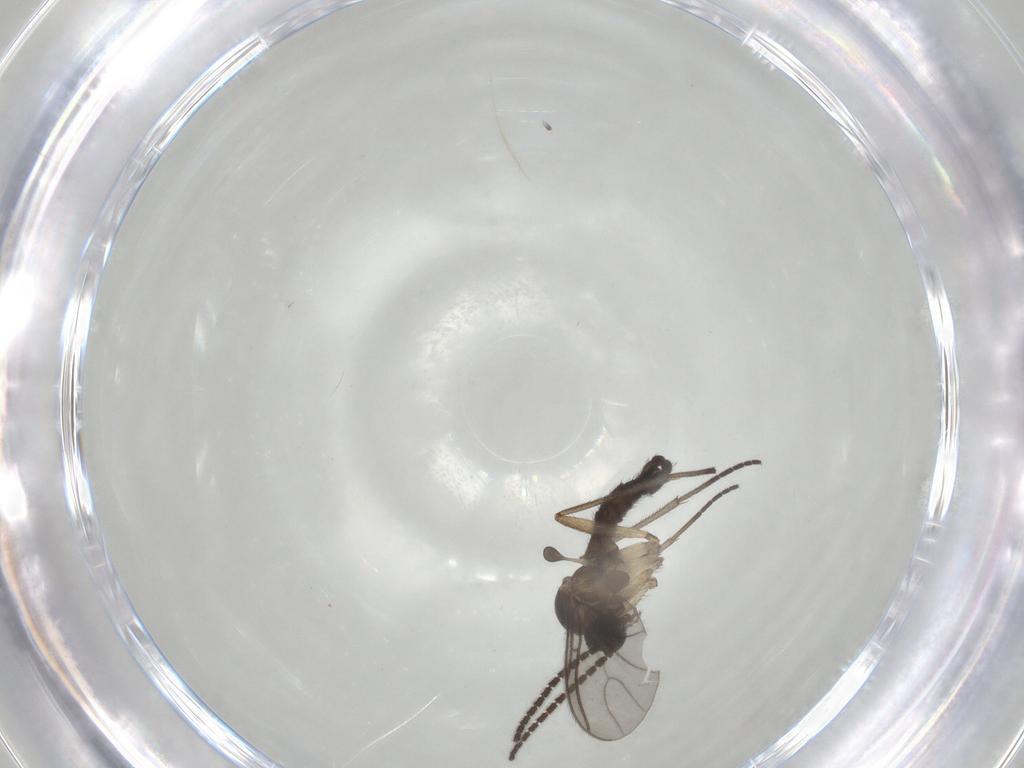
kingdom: Animalia
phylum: Arthropoda
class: Insecta
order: Diptera
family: Sciaridae
